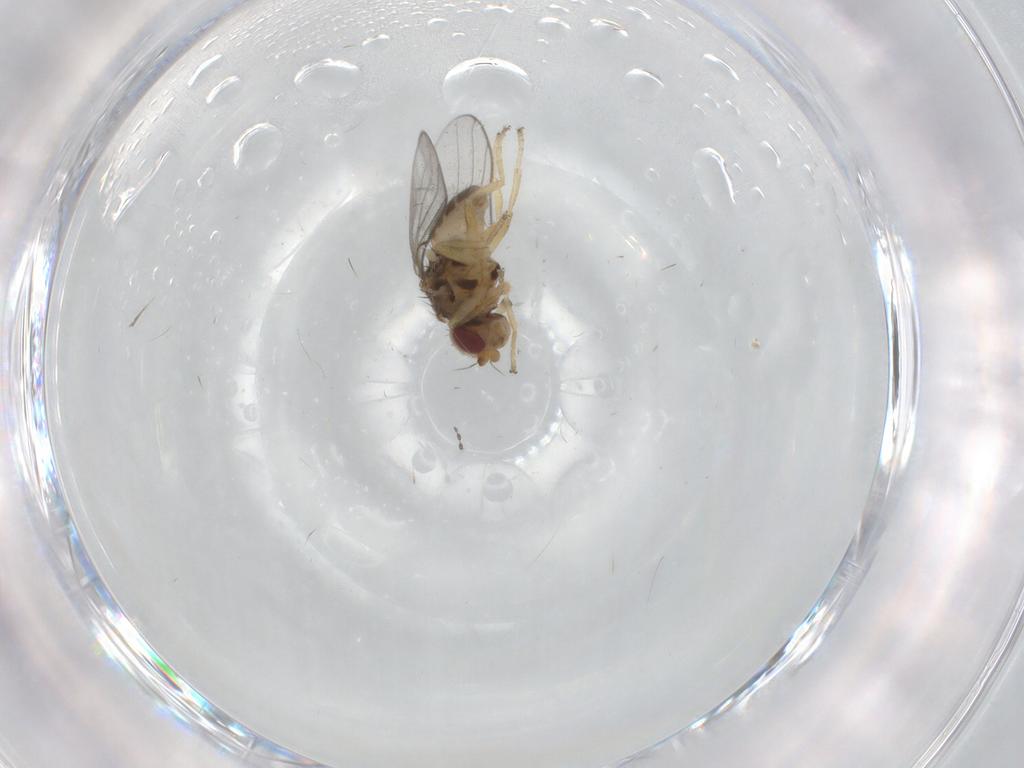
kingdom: Animalia
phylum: Arthropoda
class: Insecta
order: Diptera
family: Chloropidae
